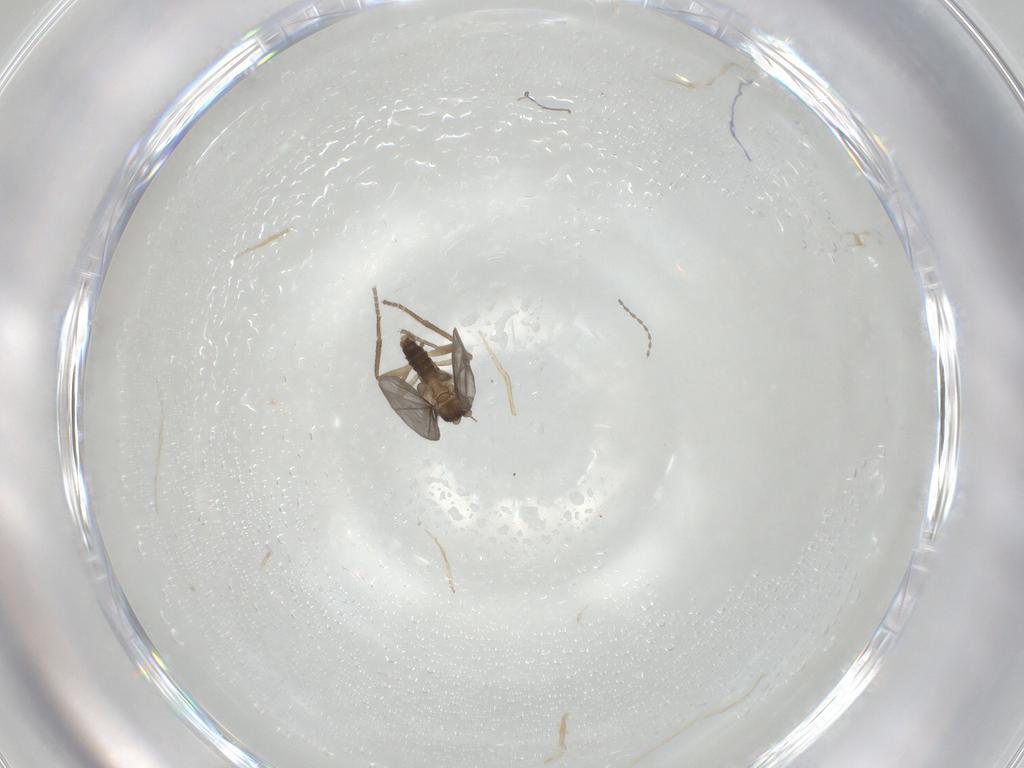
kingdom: Animalia
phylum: Arthropoda
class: Insecta
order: Diptera
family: Phoridae
